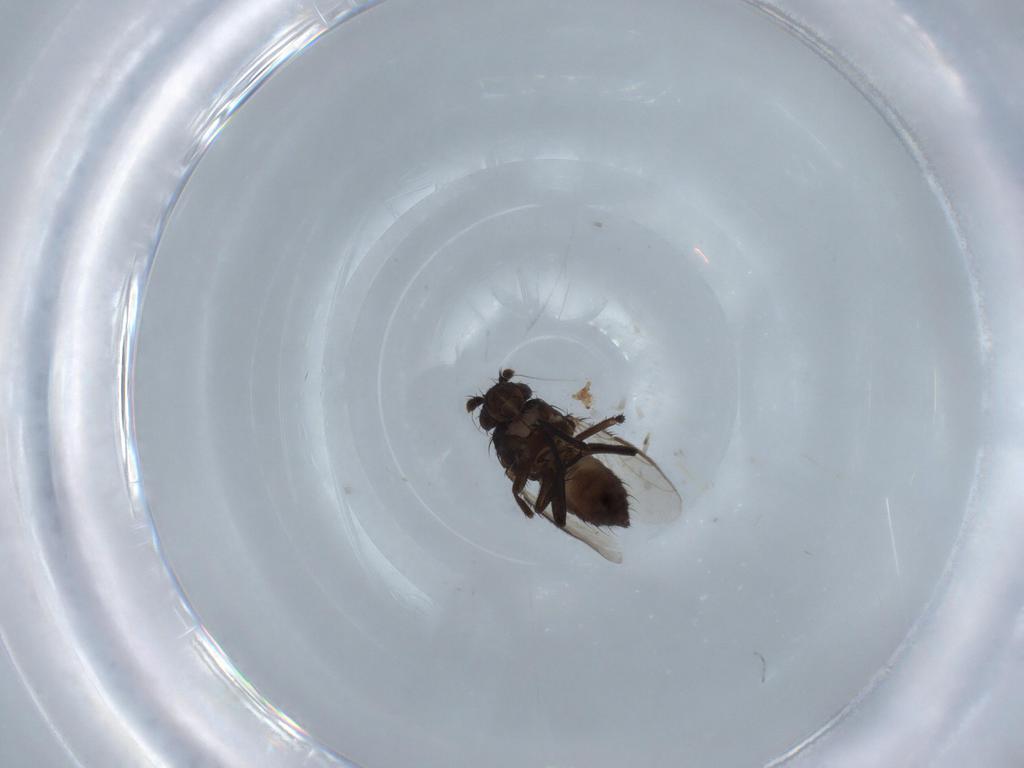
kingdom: Animalia
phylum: Arthropoda
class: Insecta
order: Diptera
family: Sphaeroceridae
